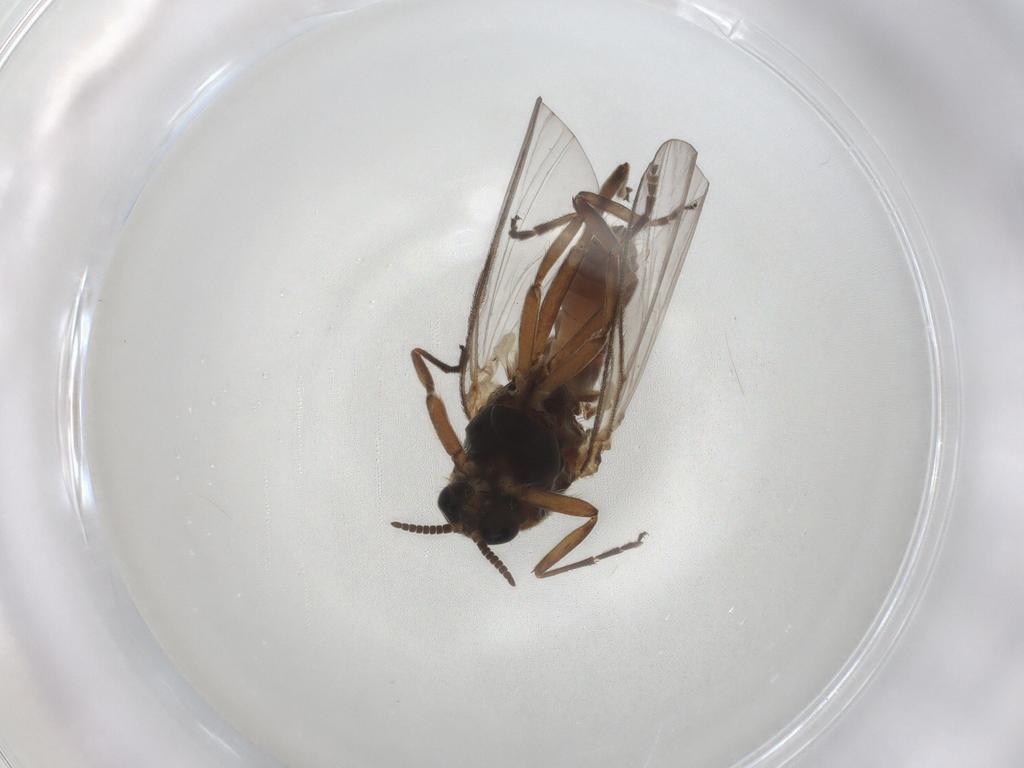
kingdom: Animalia
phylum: Arthropoda
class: Insecta
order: Diptera
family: Simuliidae
